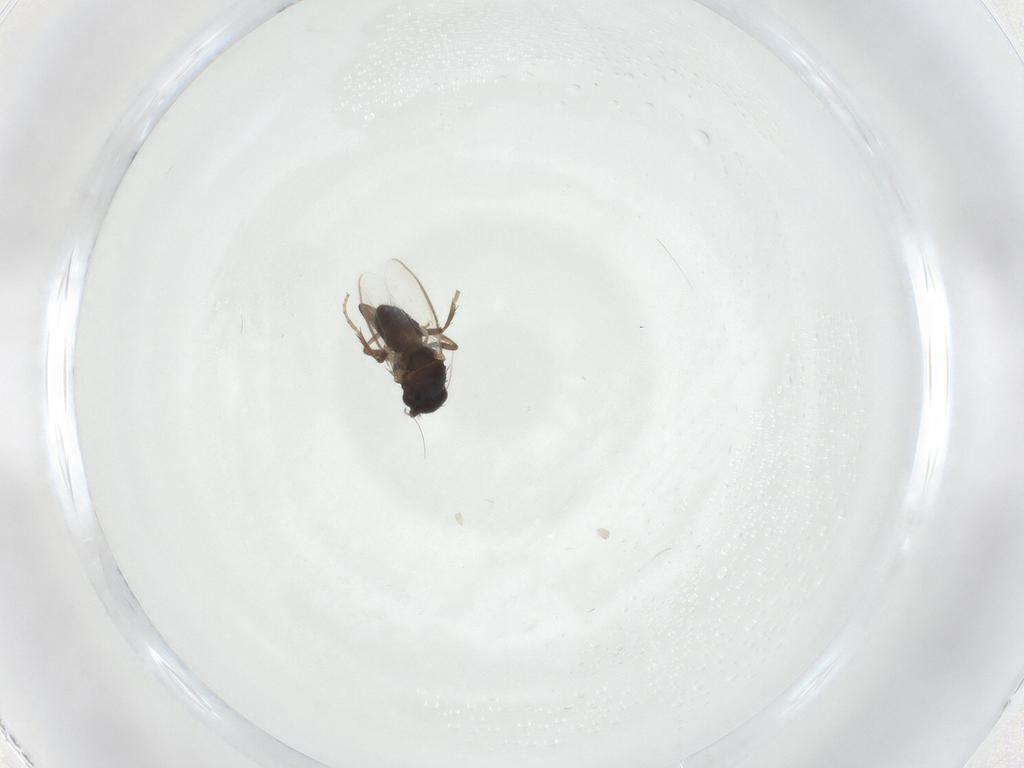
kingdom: Animalia
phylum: Arthropoda
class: Insecta
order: Diptera
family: Sphaeroceridae
